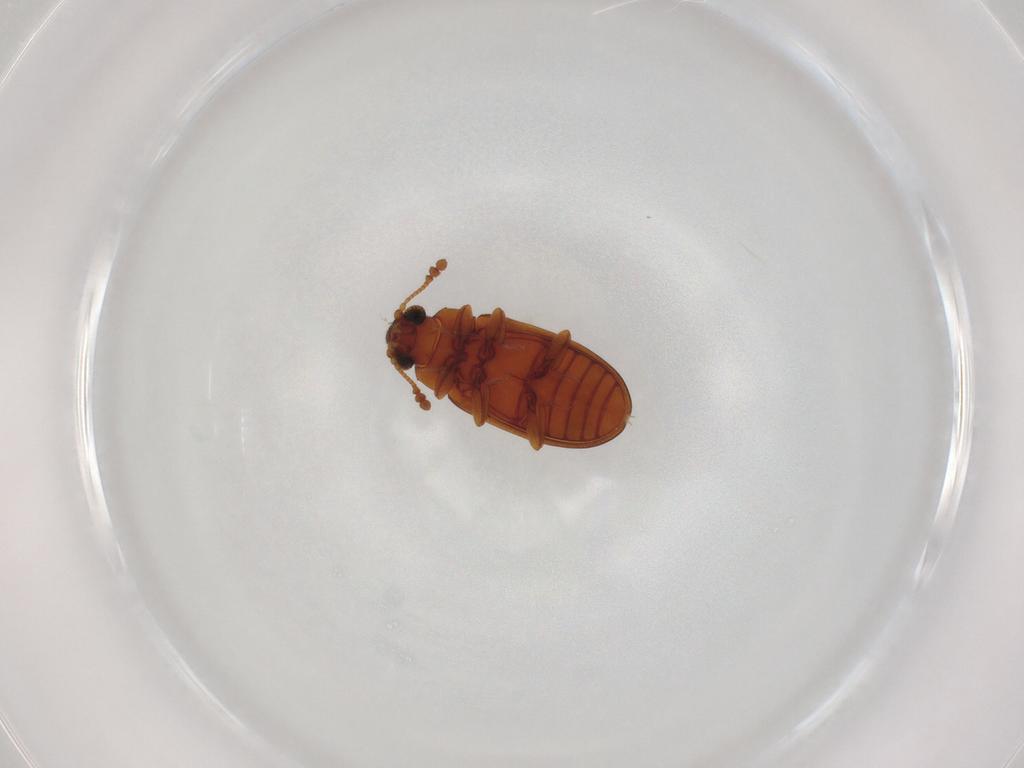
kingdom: Animalia
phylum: Arthropoda
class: Insecta
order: Coleoptera
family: Erotylidae
